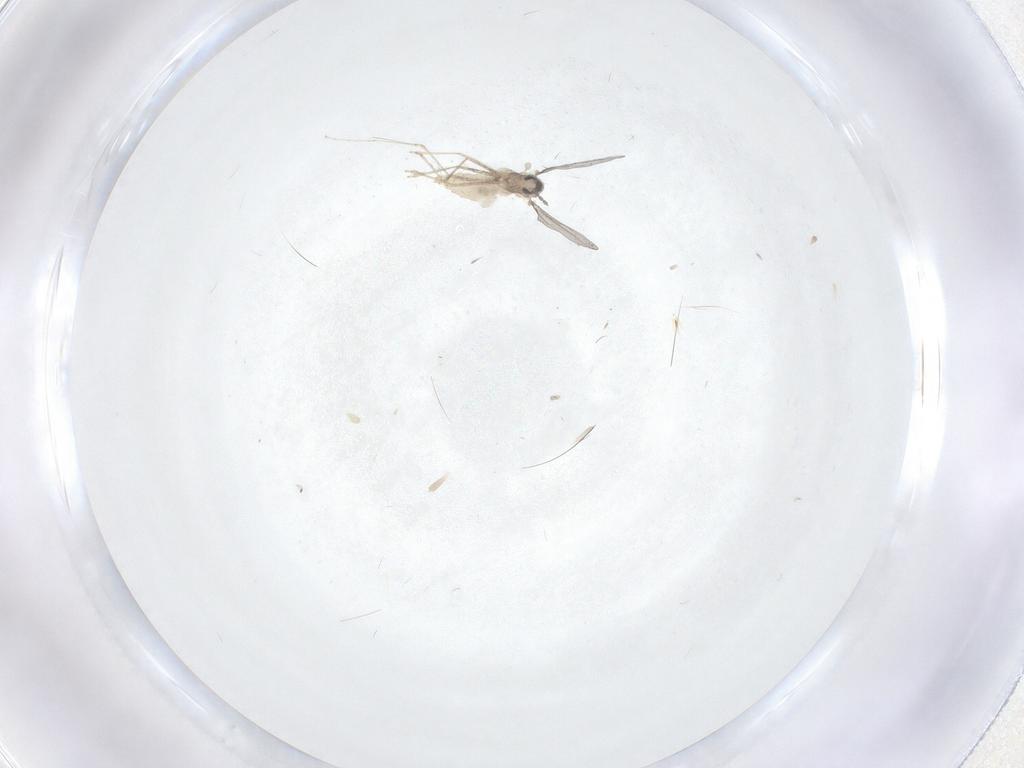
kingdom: Animalia
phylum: Arthropoda
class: Insecta
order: Diptera
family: Cecidomyiidae
